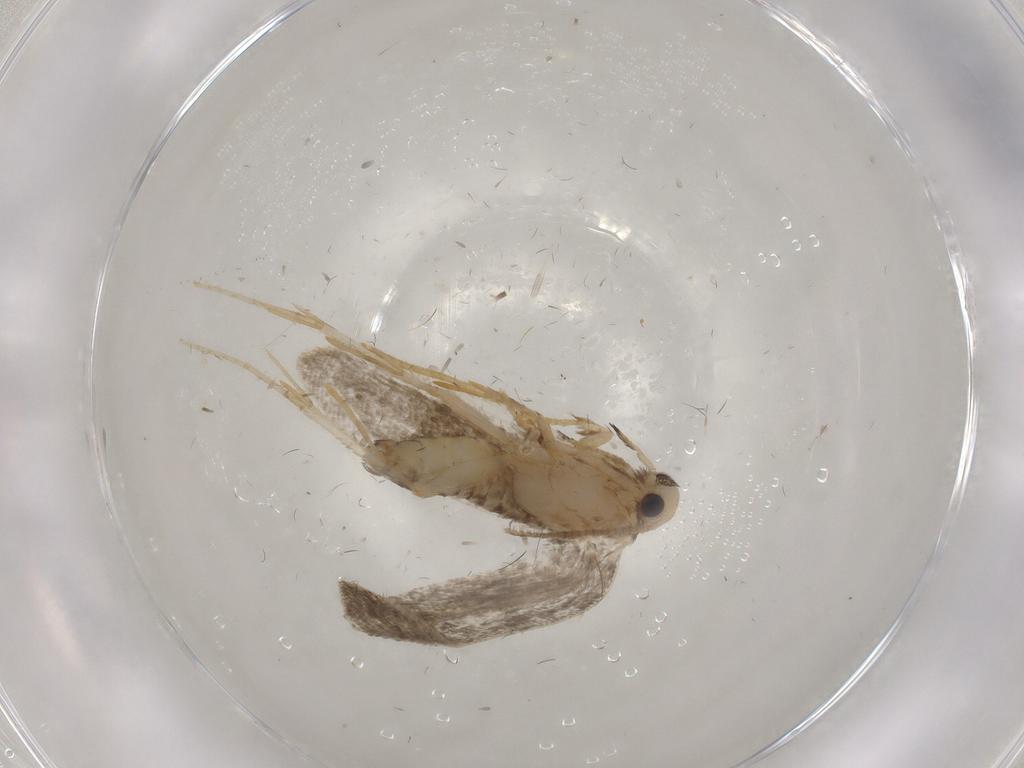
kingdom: Animalia
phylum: Arthropoda
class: Insecta
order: Lepidoptera
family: Psychidae
